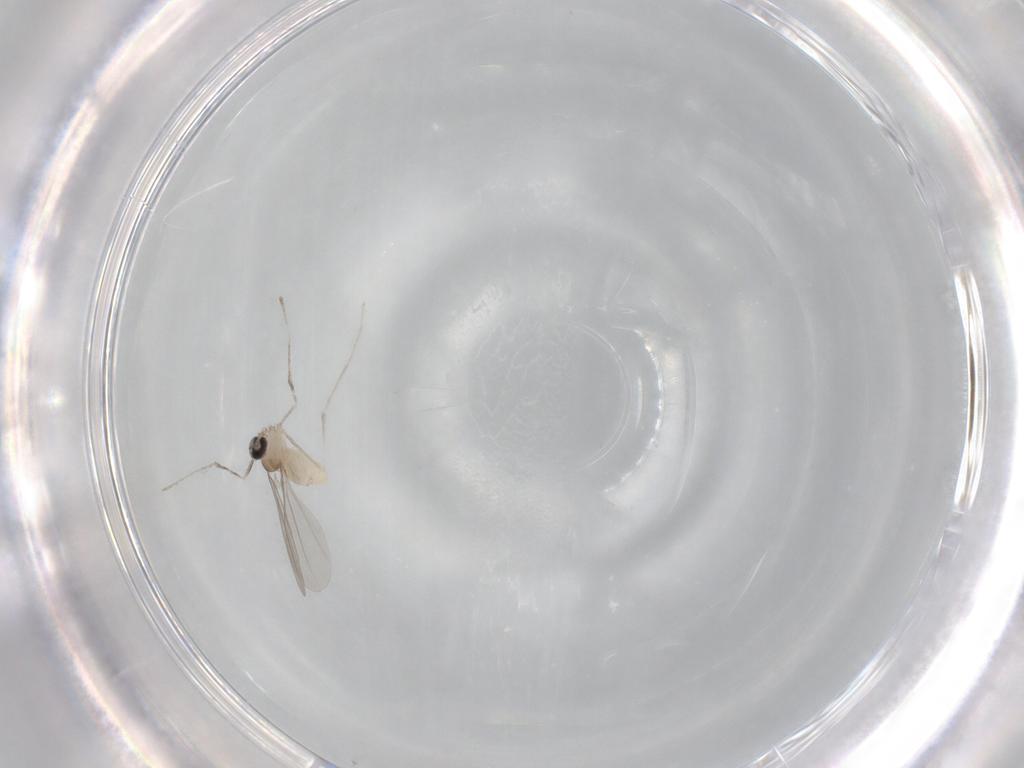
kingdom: Animalia
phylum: Arthropoda
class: Insecta
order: Diptera
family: Cecidomyiidae
